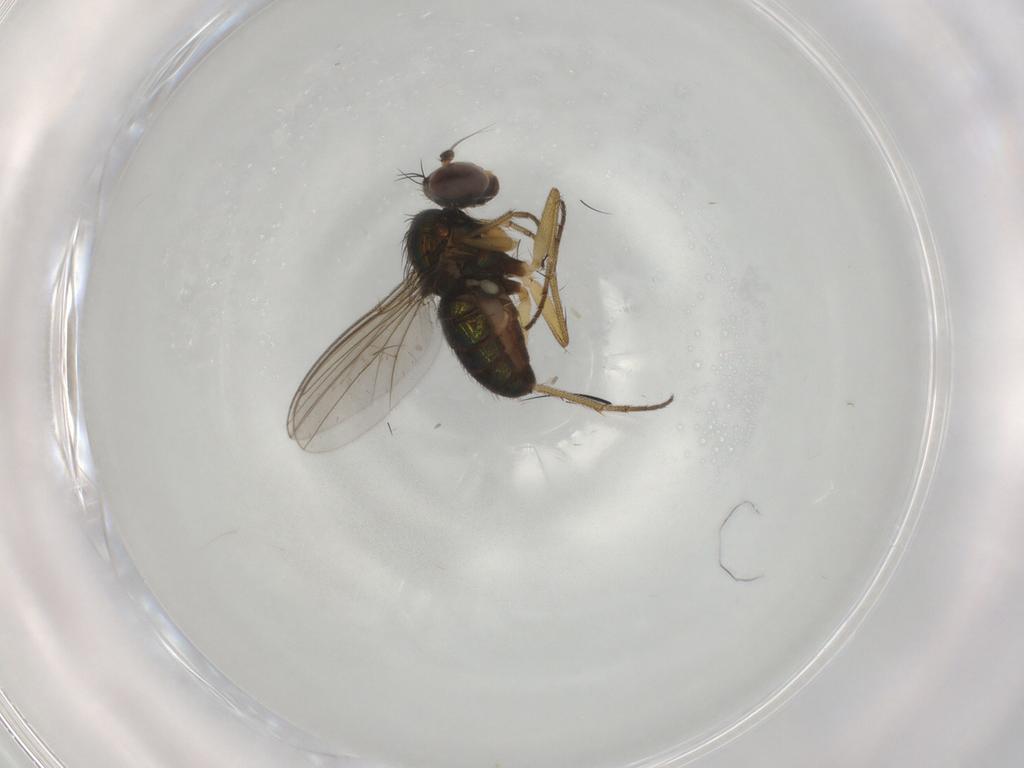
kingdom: Animalia
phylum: Arthropoda
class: Insecta
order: Diptera
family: Limoniidae
